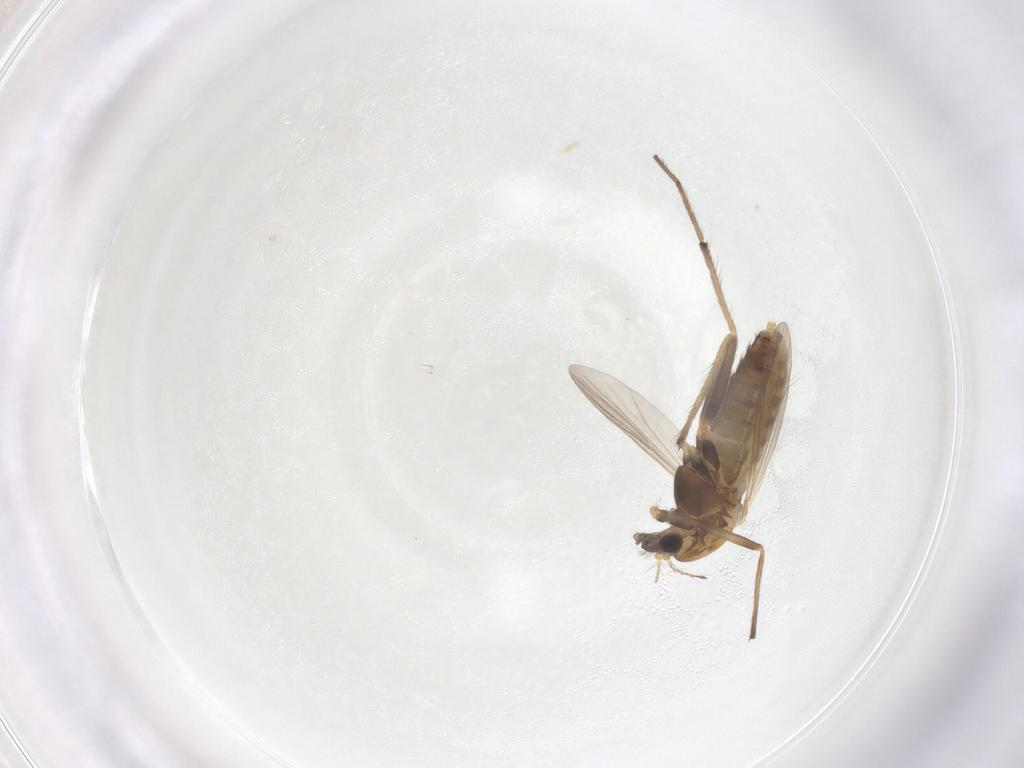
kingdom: Animalia
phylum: Arthropoda
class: Insecta
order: Diptera
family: Chironomidae
